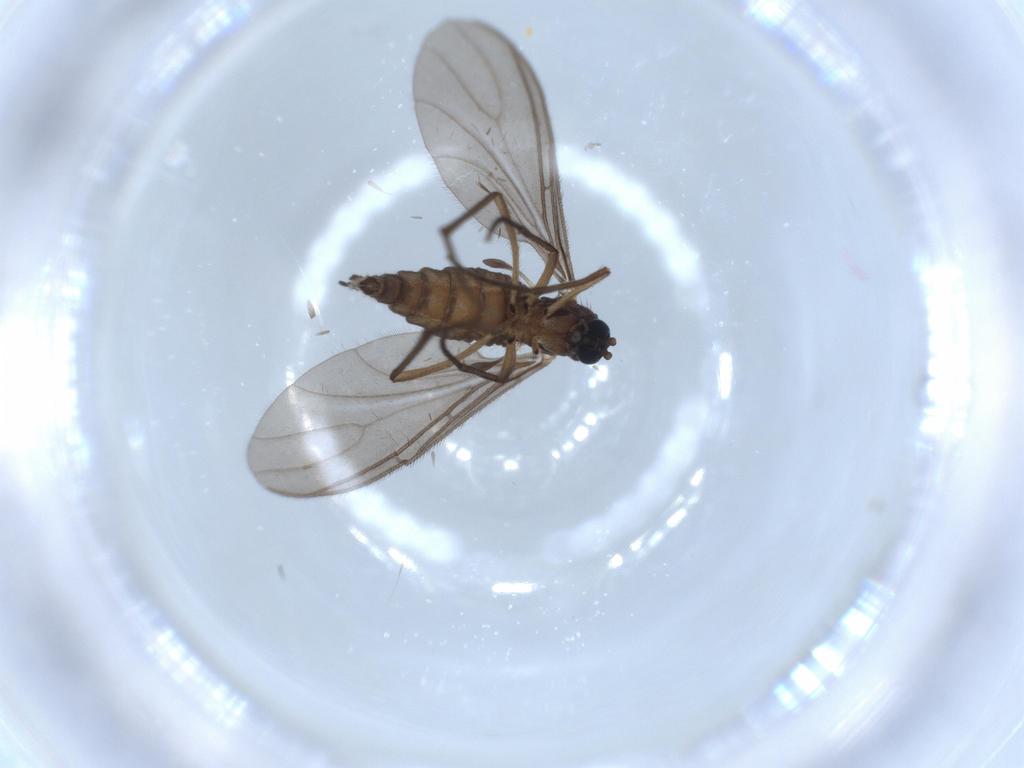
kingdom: Animalia
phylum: Arthropoda
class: Insecta
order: Diptera
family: Sciaridae
